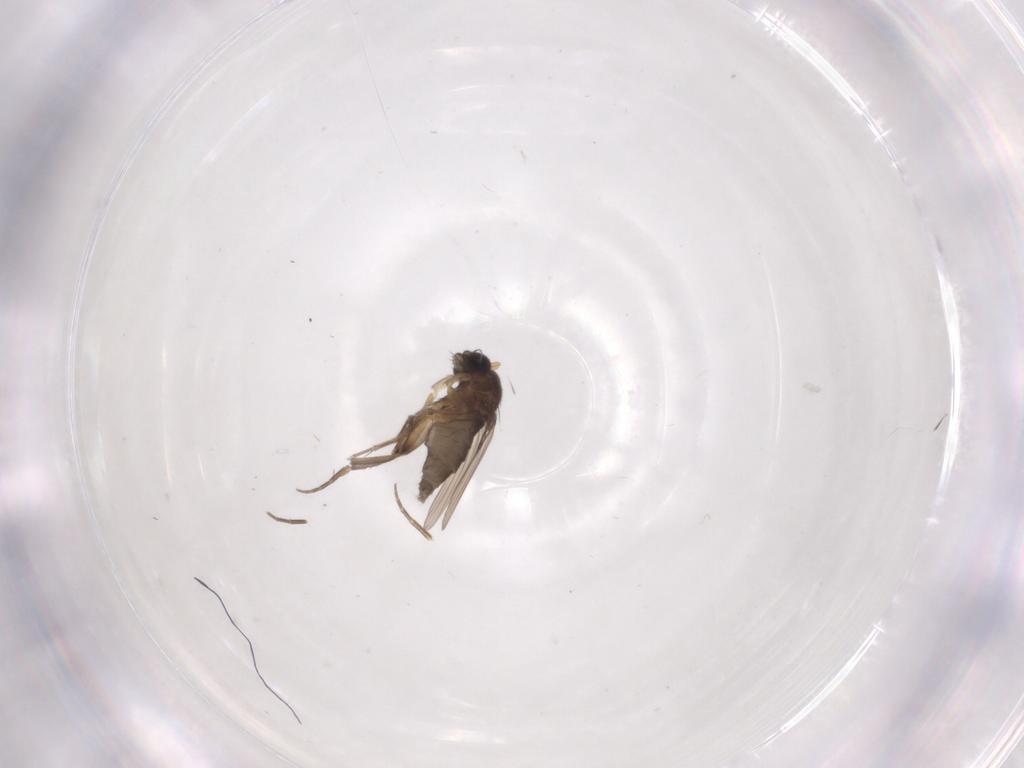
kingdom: Animalia
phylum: Arthropoda
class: Insecta
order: Diptera
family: Phoridae
